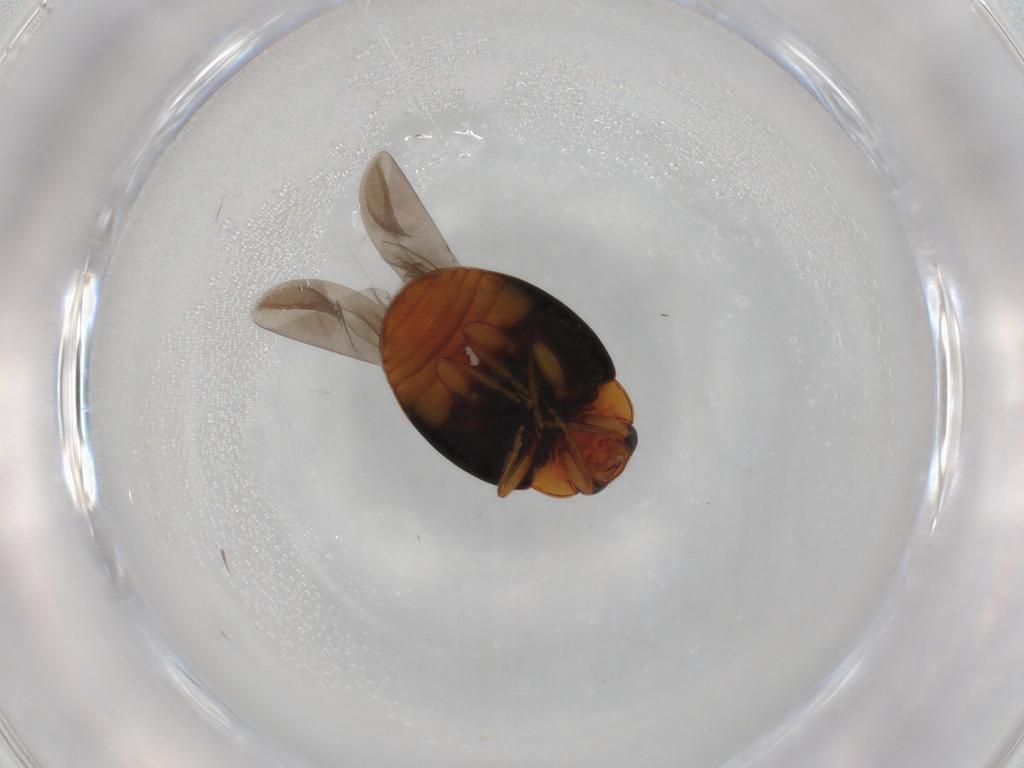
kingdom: Animalia
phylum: Arthropoda
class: Insecta
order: Coleoptera
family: Coccinellidae
